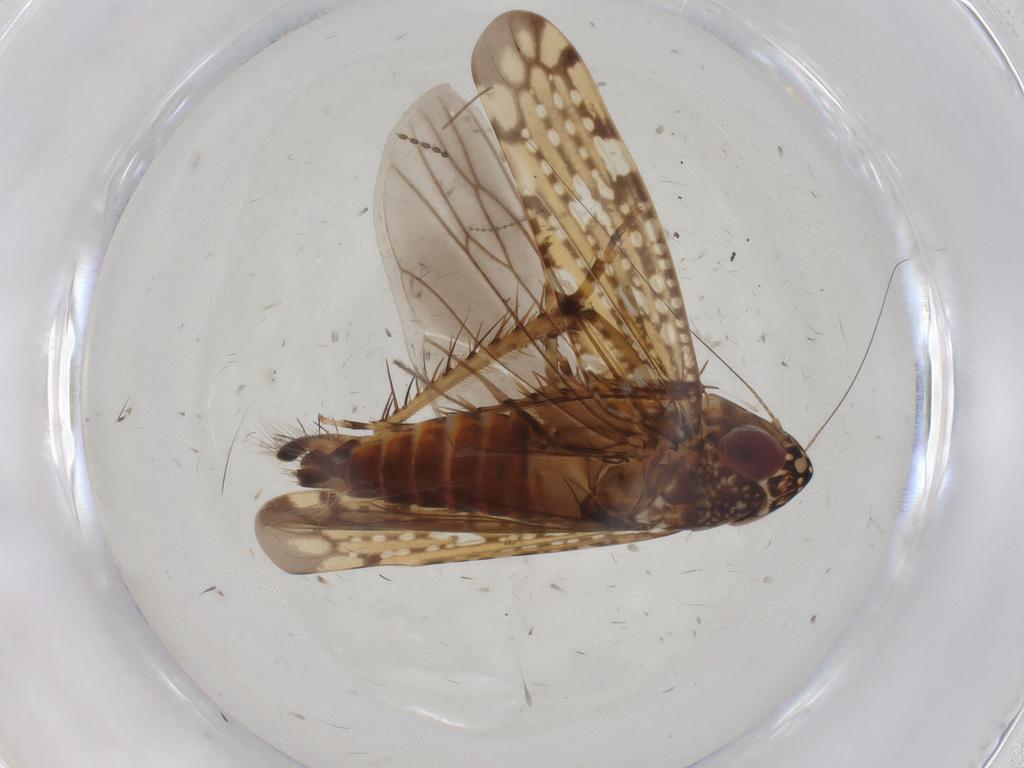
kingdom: Animalia
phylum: Arthropoda
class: Insecta
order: Hemiptera
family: Cicadellidae
